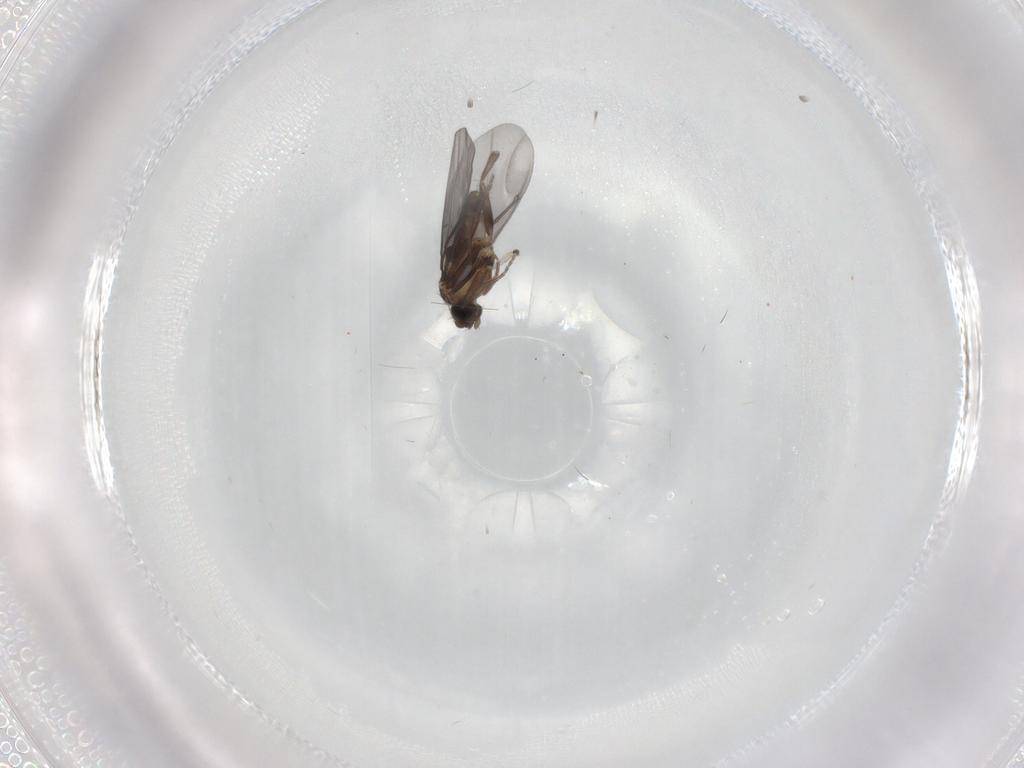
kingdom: Animalia
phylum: Arthropoda
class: Insecta
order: Diptera
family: Phoridae
